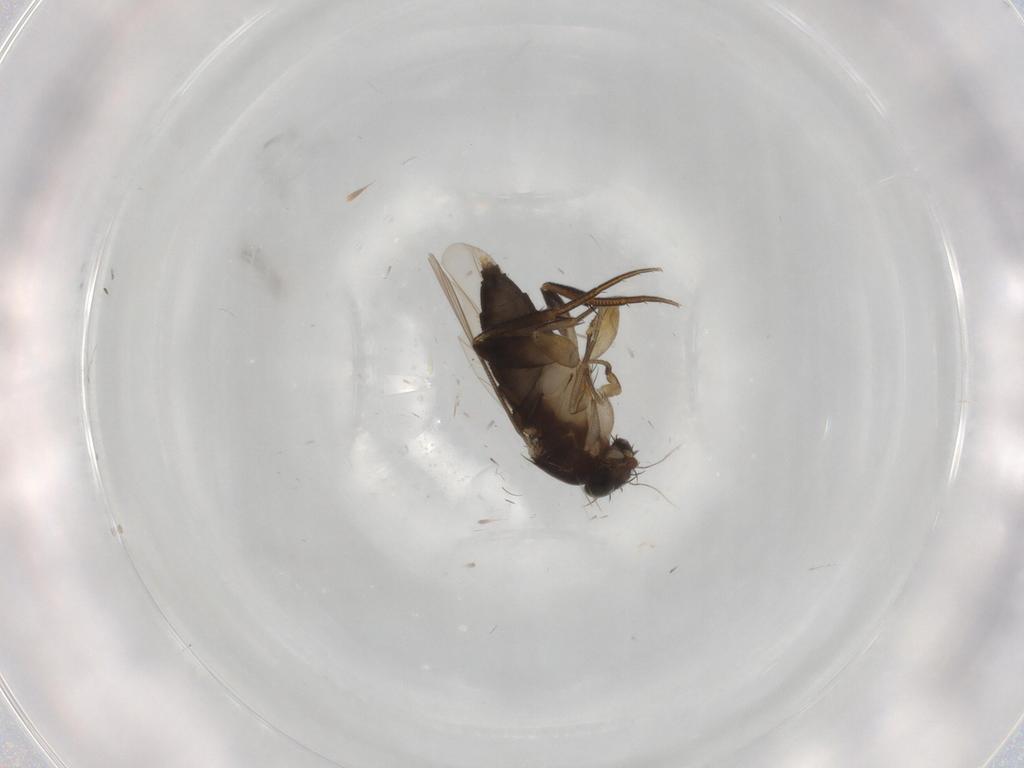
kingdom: Animalia
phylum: Arthropoda
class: Insecta
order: Diptera
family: Phoridae
